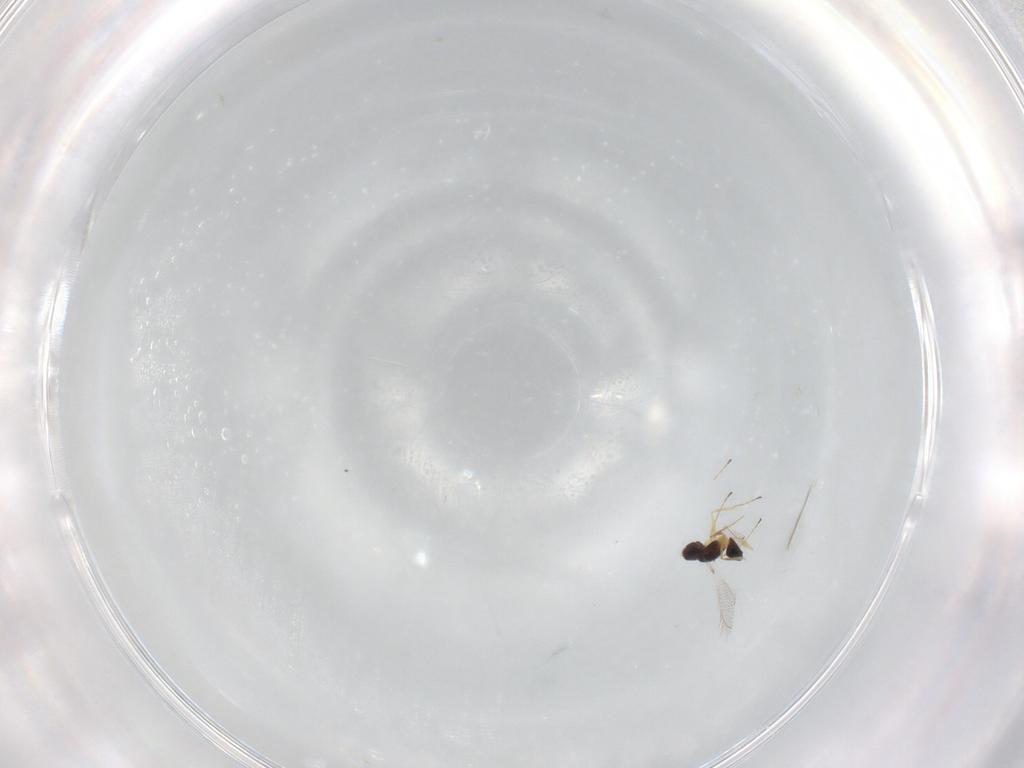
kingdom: Animalia
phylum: Arthropoda
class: Insecta
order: Hymenoptera
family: Mymaridae
